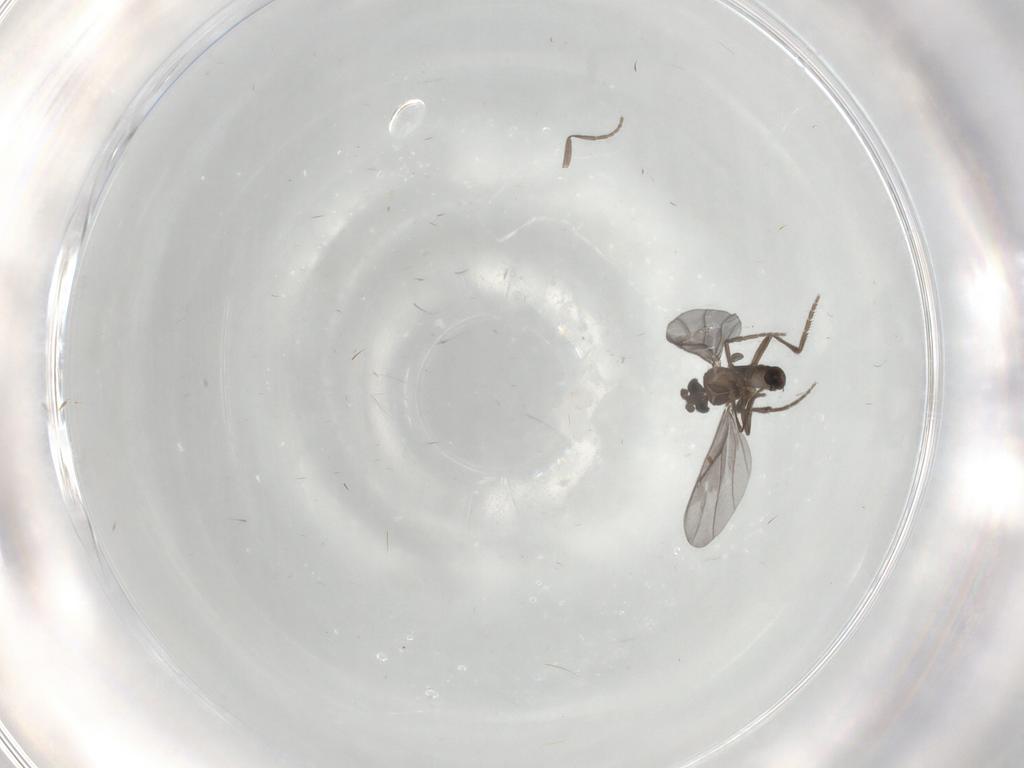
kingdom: Animalia
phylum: Arthropoda
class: Insecta
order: Diptera
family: Phoridae
